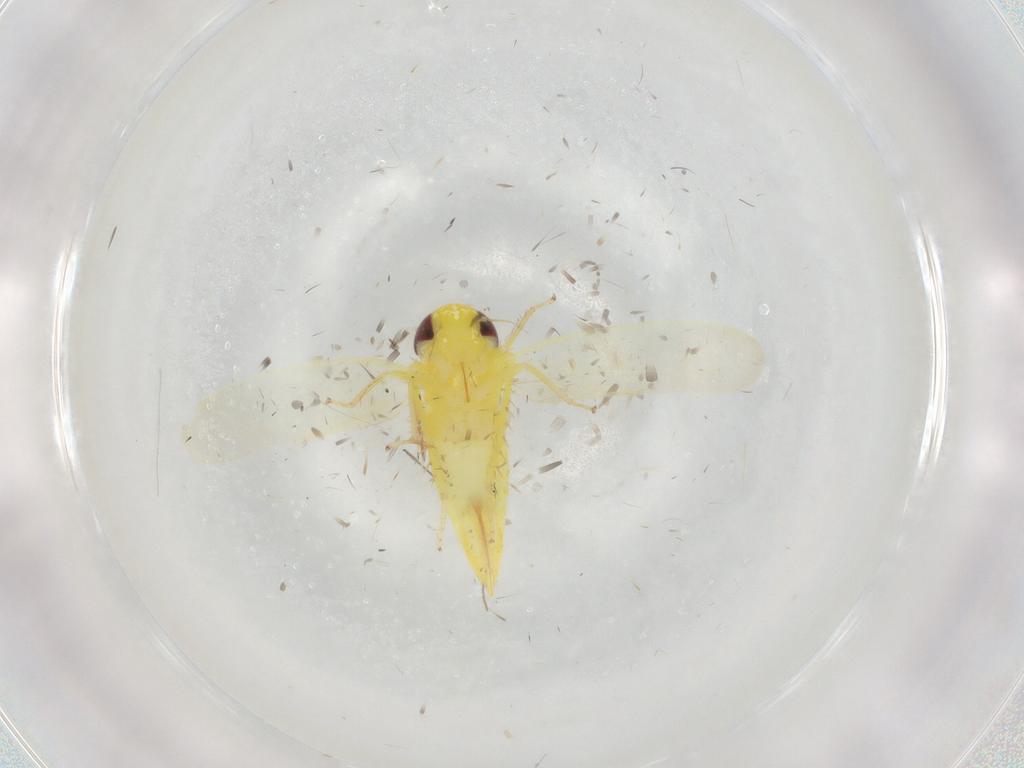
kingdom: Animalia
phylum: Arthropoda
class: Insecta
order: Hemiptera
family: Cicadellidae
